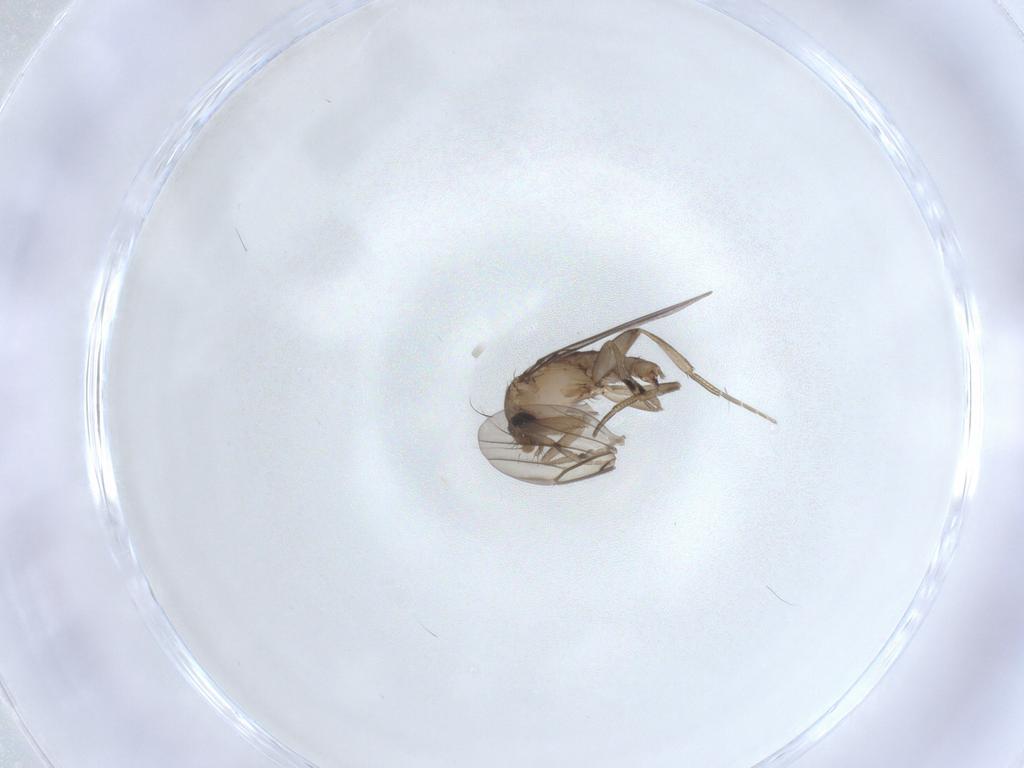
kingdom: Animalia
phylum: Arthropoda
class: Insecta
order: Diptera
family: Phoridae
